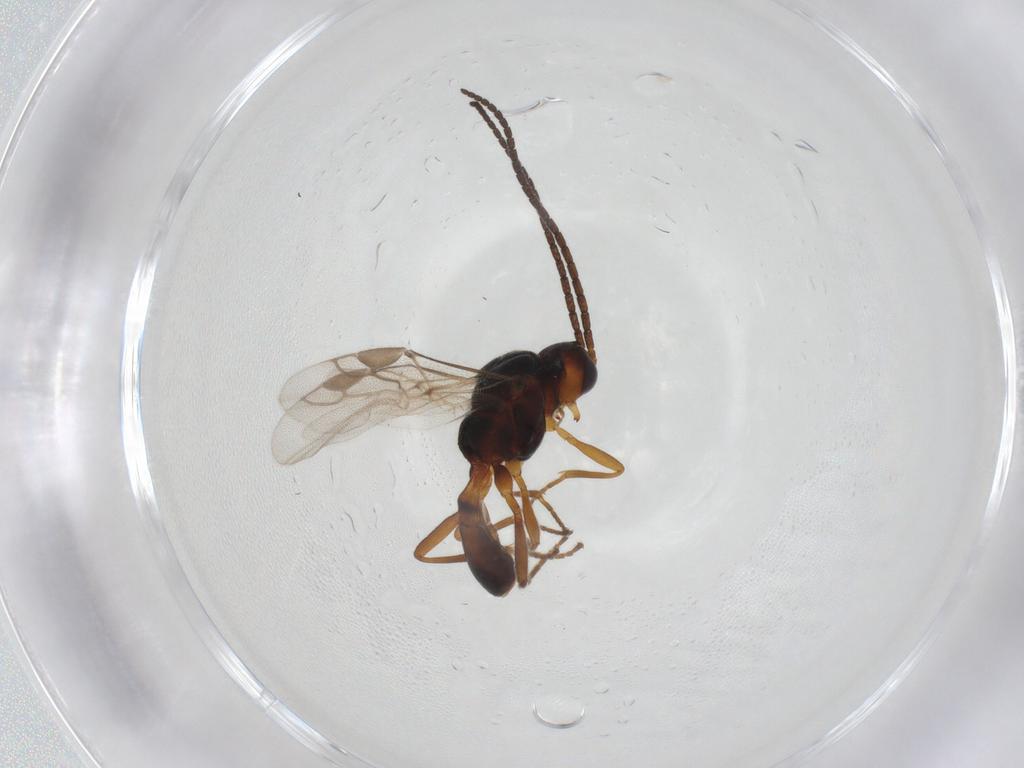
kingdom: Animalia
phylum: Arthropoda
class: Insecta
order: Hymenoptera
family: Braconidae
